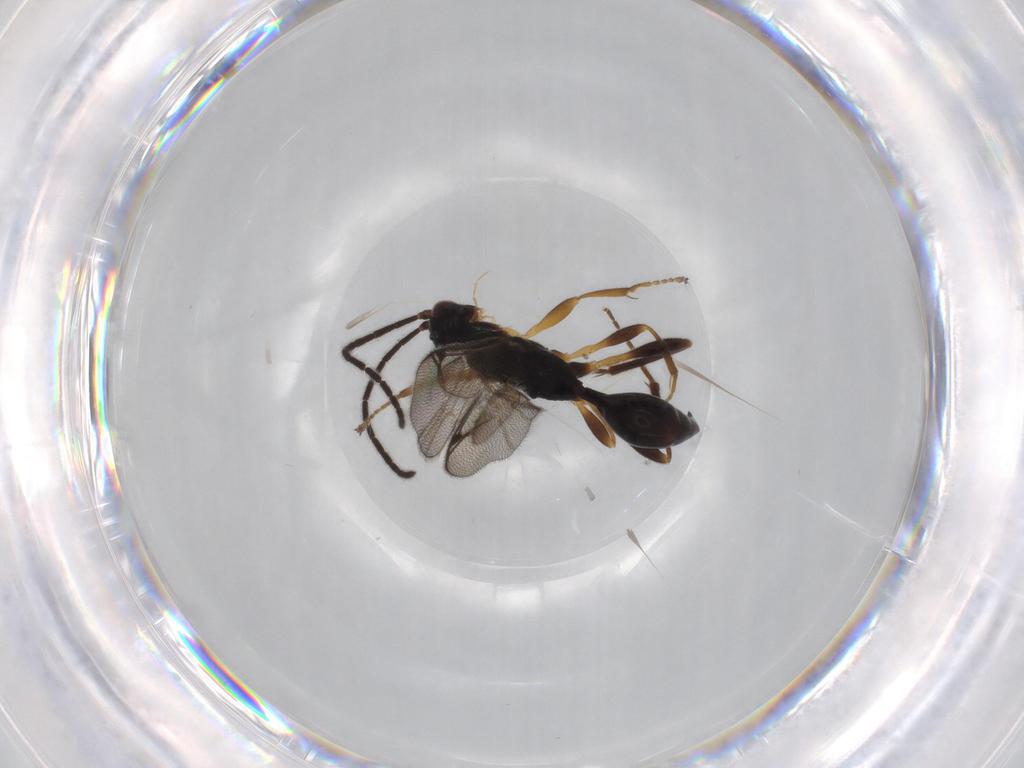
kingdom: Animalia
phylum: Arthropoda
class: Insecta
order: Hymenoptera
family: Proctotrupidae
